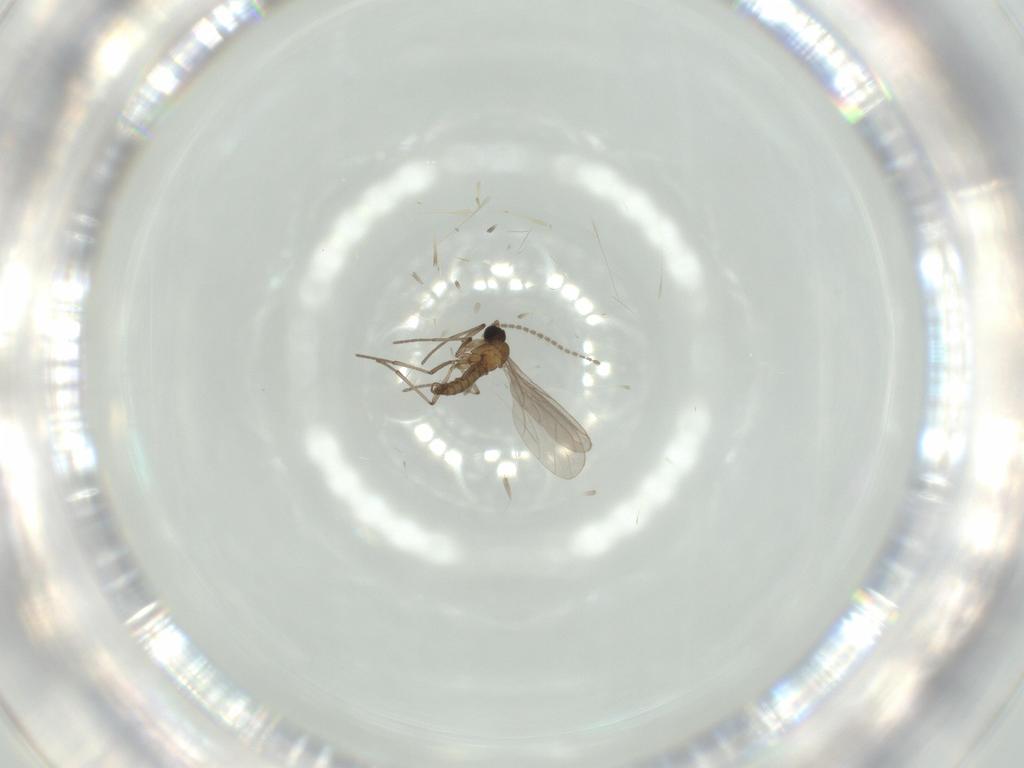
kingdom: Animalia
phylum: Arthropoda
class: Insecta
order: Diptera
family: Sciaridae
